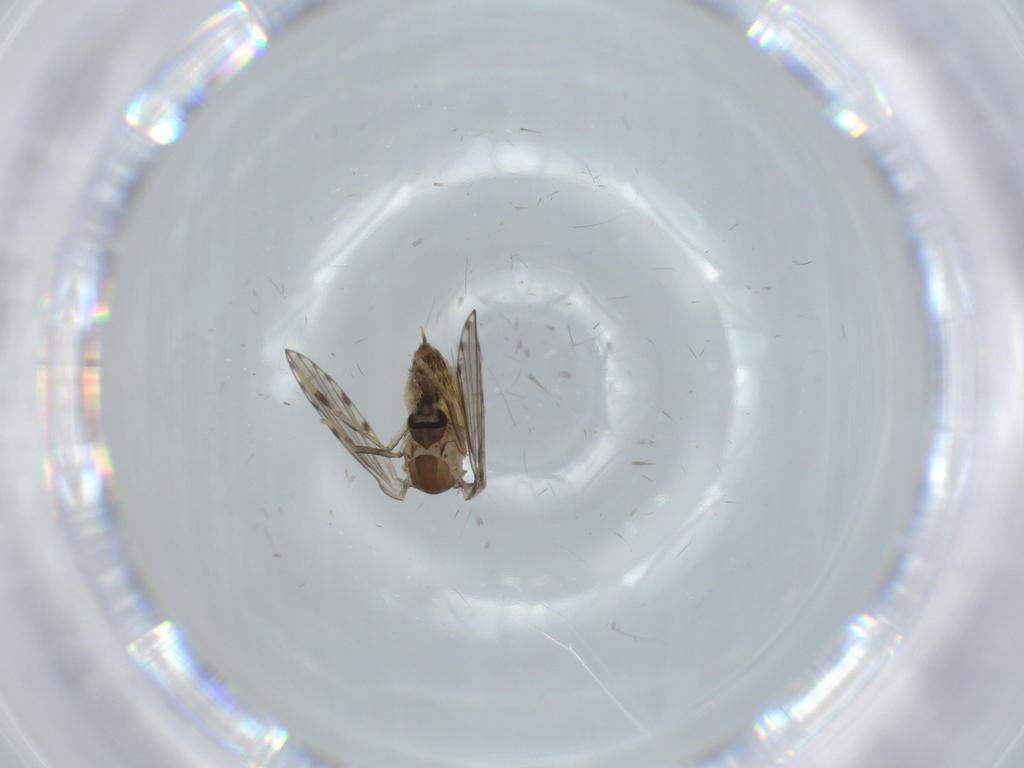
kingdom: Animalia
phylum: Arthropoda
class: Insecta
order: Diptera
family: Psychodidae
